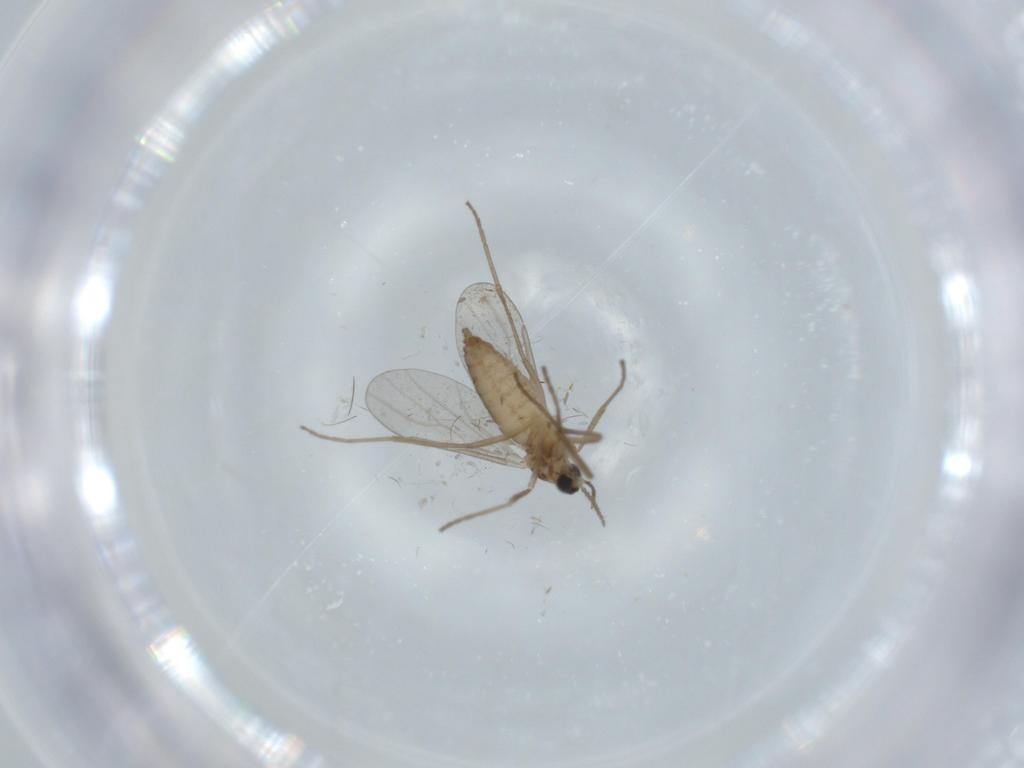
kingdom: Animalia
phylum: Arthropoda
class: Insecta
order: Diptera
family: Cecidomyiidae
